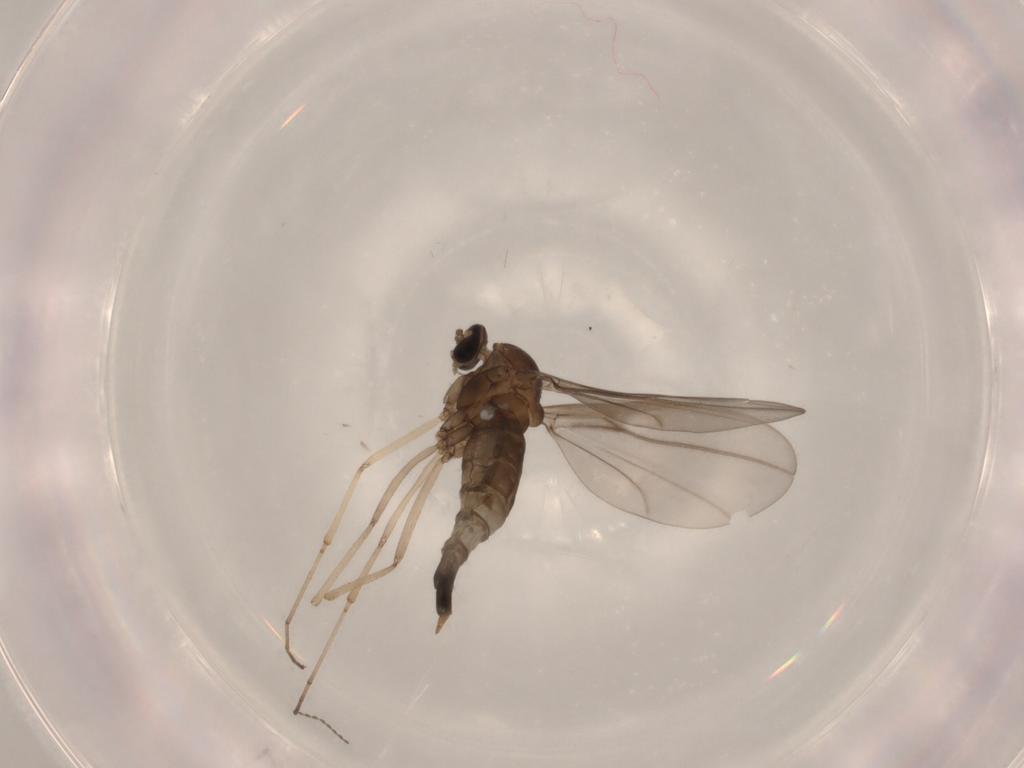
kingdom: Animalia
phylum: Arthropoda
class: Insecta
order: Diptera
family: Cecidomyiidae
